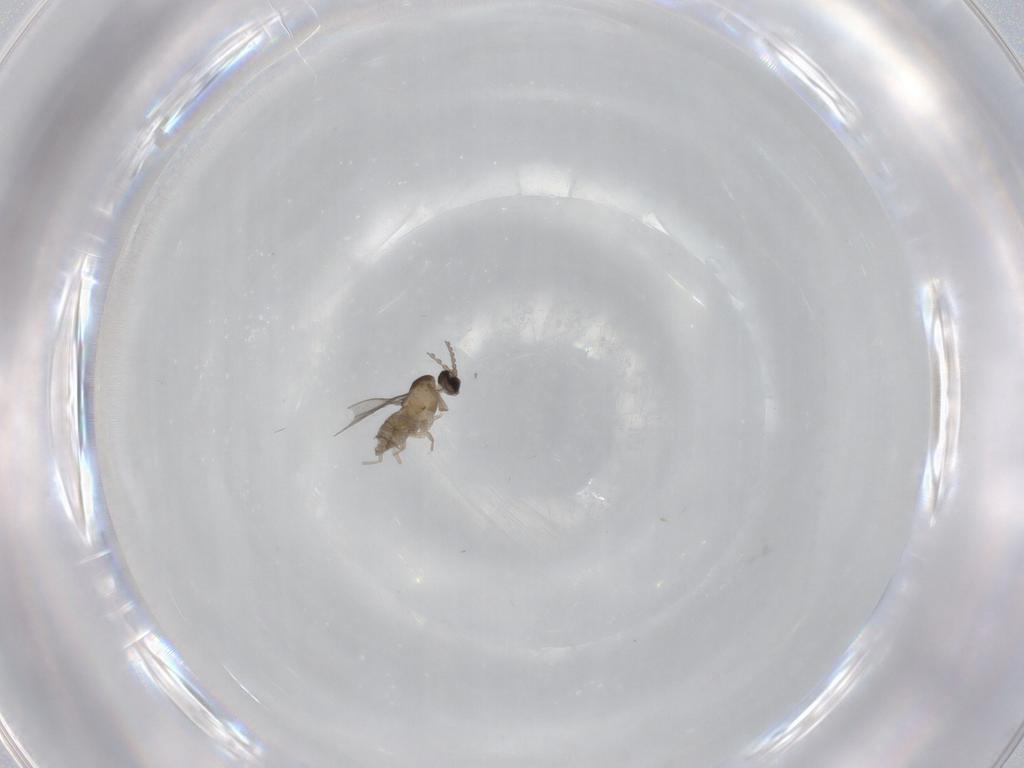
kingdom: Animalia
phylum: Arthropoda
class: Insecta
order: Diptera
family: Cecidomyiidae
